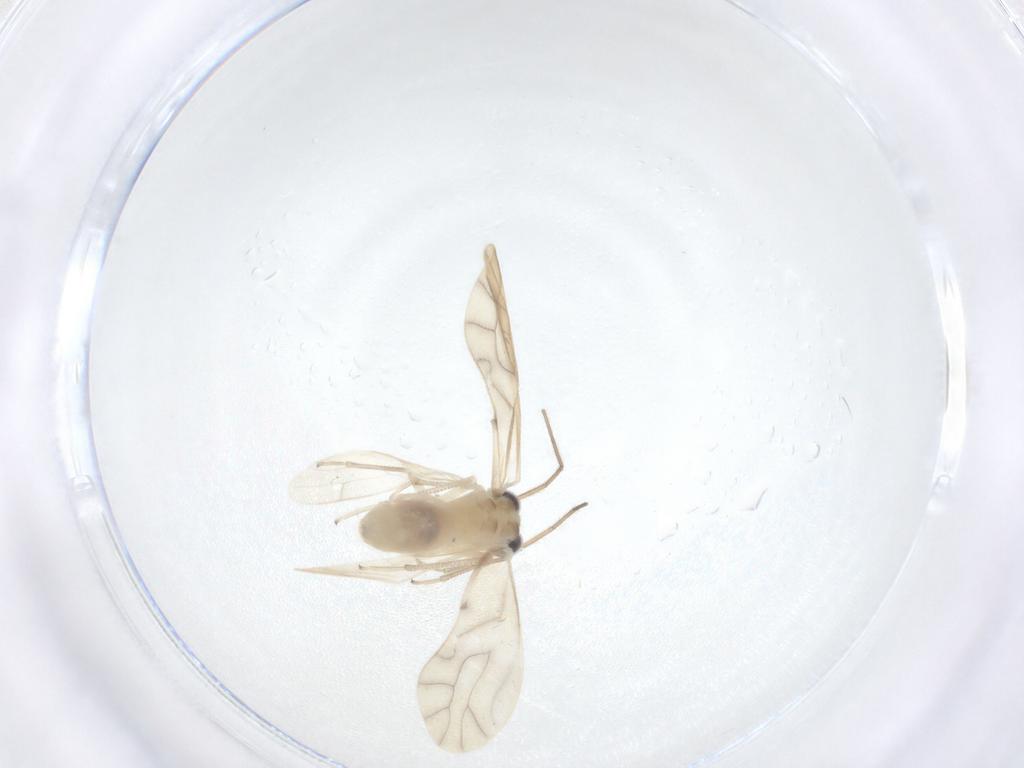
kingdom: Animalia
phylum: Arthropoda
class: Insecta
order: Psocodea
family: Caeciliusidae
